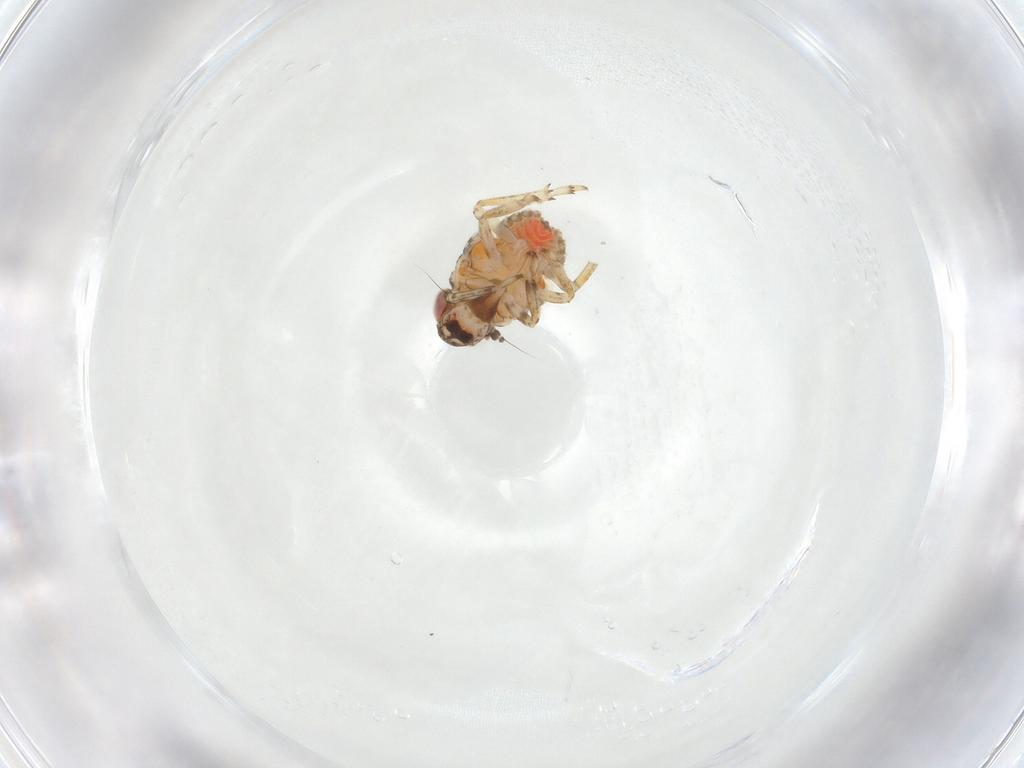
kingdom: Animalia
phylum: Arthropoda
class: Insecta
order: Hemiptera
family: Issidae
